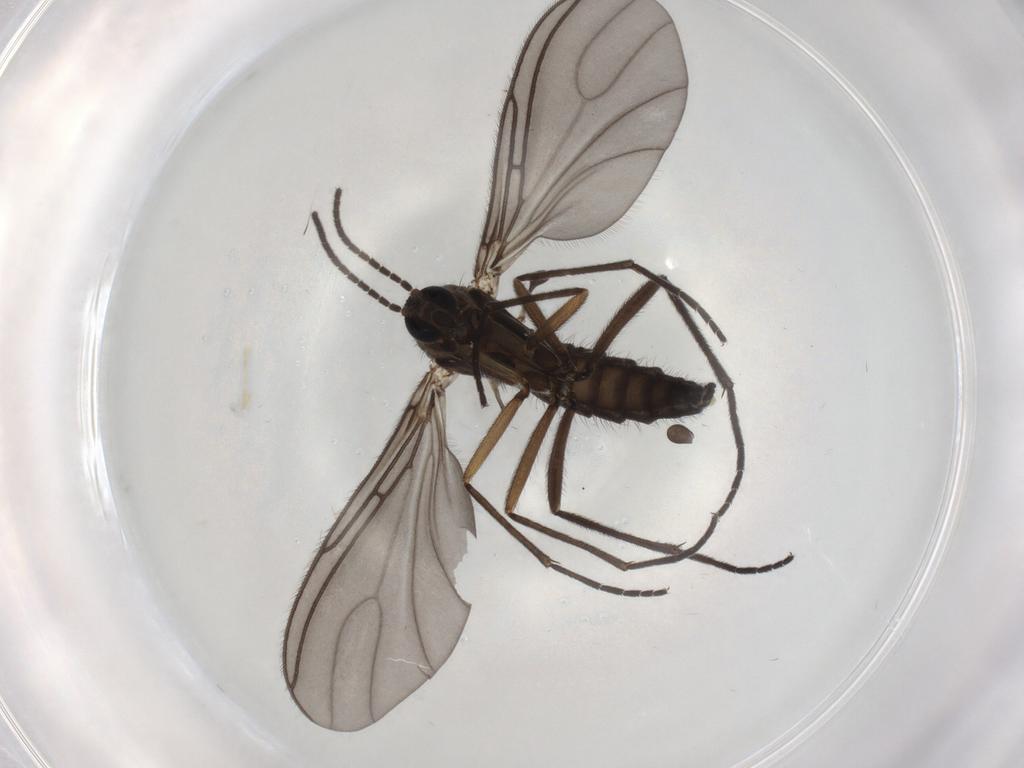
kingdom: Animalia
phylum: Arthropoda
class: Insecta
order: Diptera
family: Sciaridae
